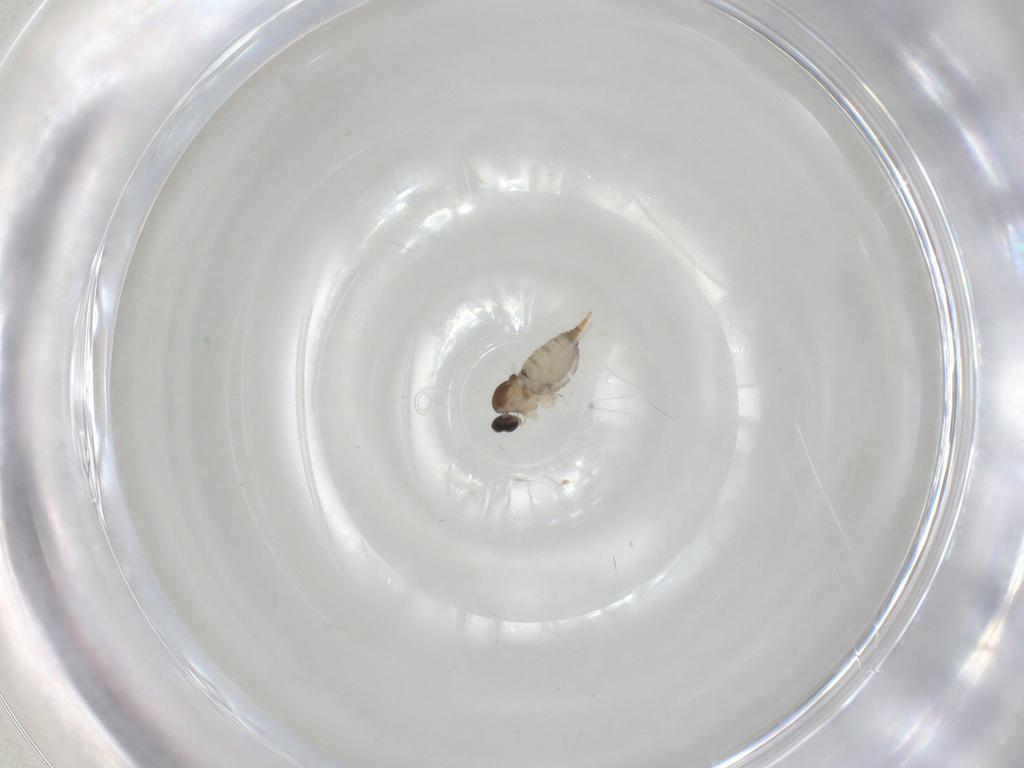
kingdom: Animalia
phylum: Arthropoda
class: Insecta
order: Diptera
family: Cecidomyiidae
